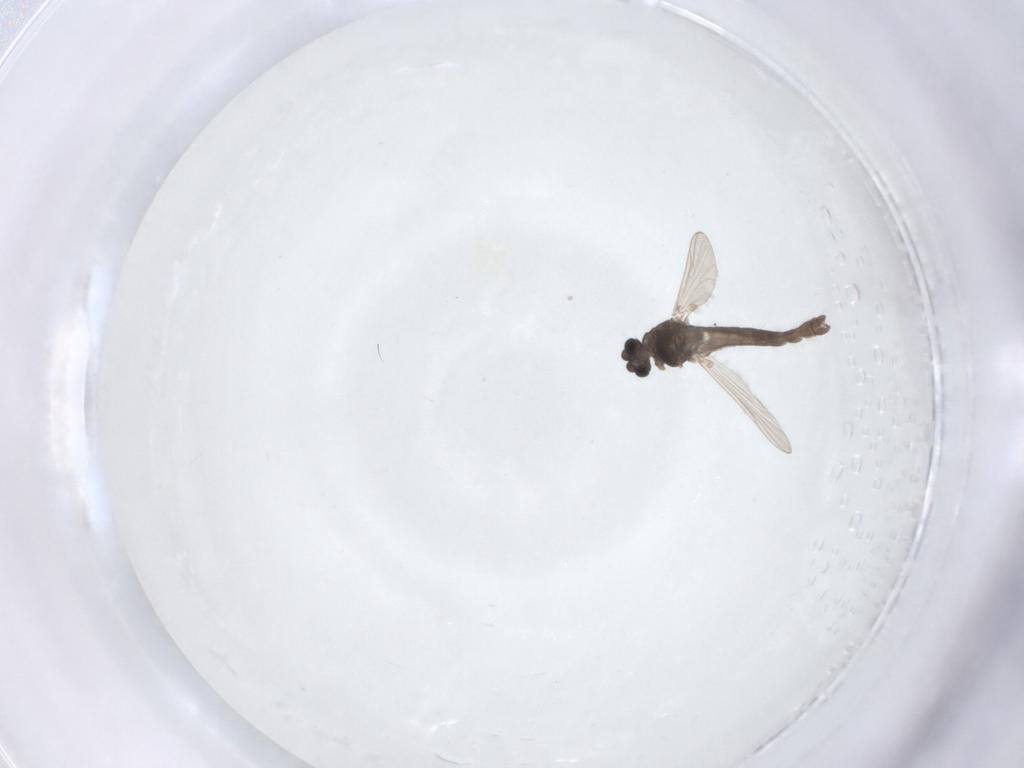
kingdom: Animalia
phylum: Arthropoda
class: Insecta
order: Diptera
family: Chironomidae
